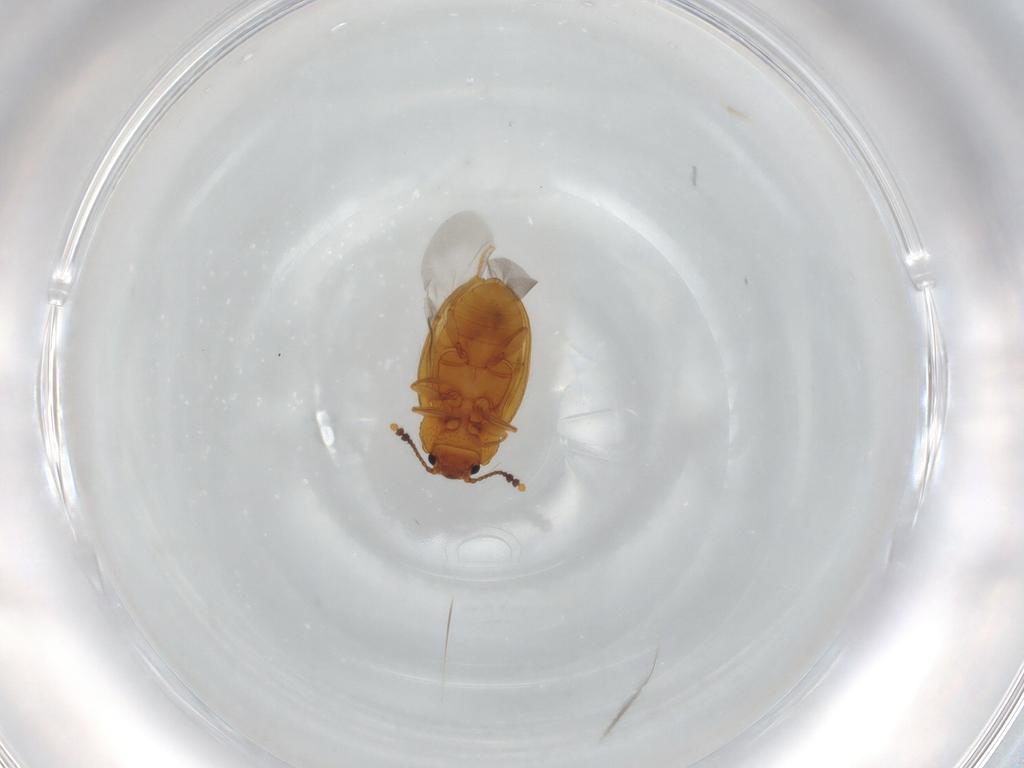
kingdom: Animalia
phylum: Arthropoda
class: Insecta
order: Coleoptera
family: Erotylidae
